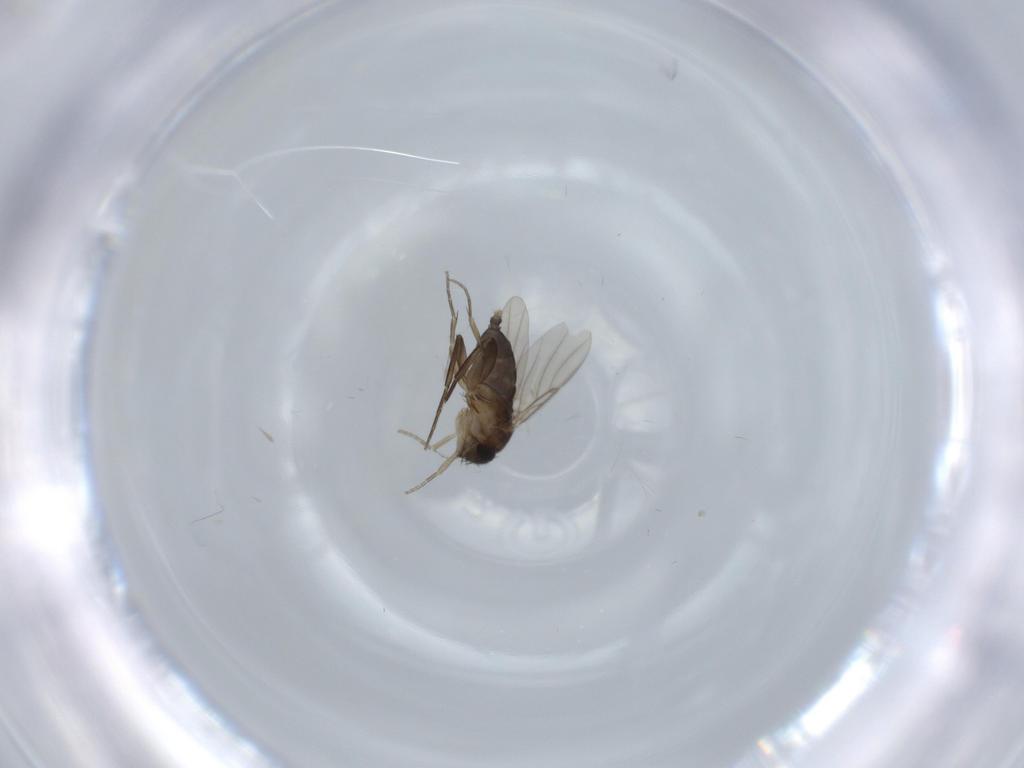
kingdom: Animalia
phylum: Arthropoda
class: Insecta
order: Diptera
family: Phoridae
